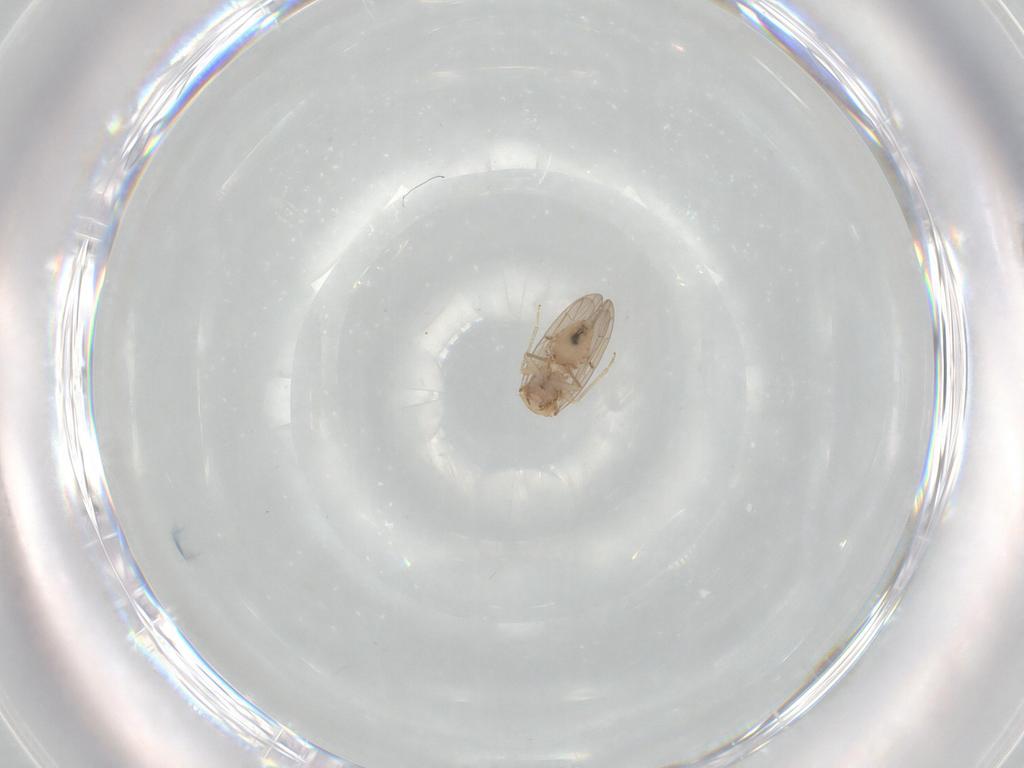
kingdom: Animalia
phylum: Arthropoda
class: Insecta
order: Psocodea
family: Ectopsocidae
